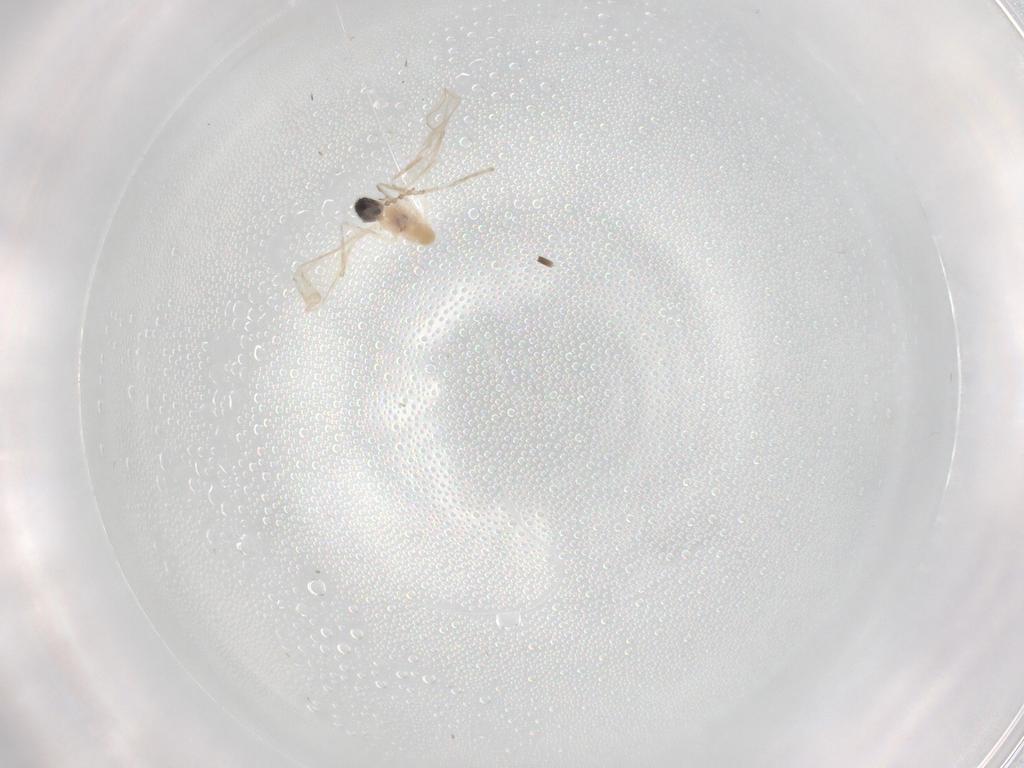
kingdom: Animalia
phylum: Arthropoda
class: Insecta
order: Diptera
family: Chironomidae
